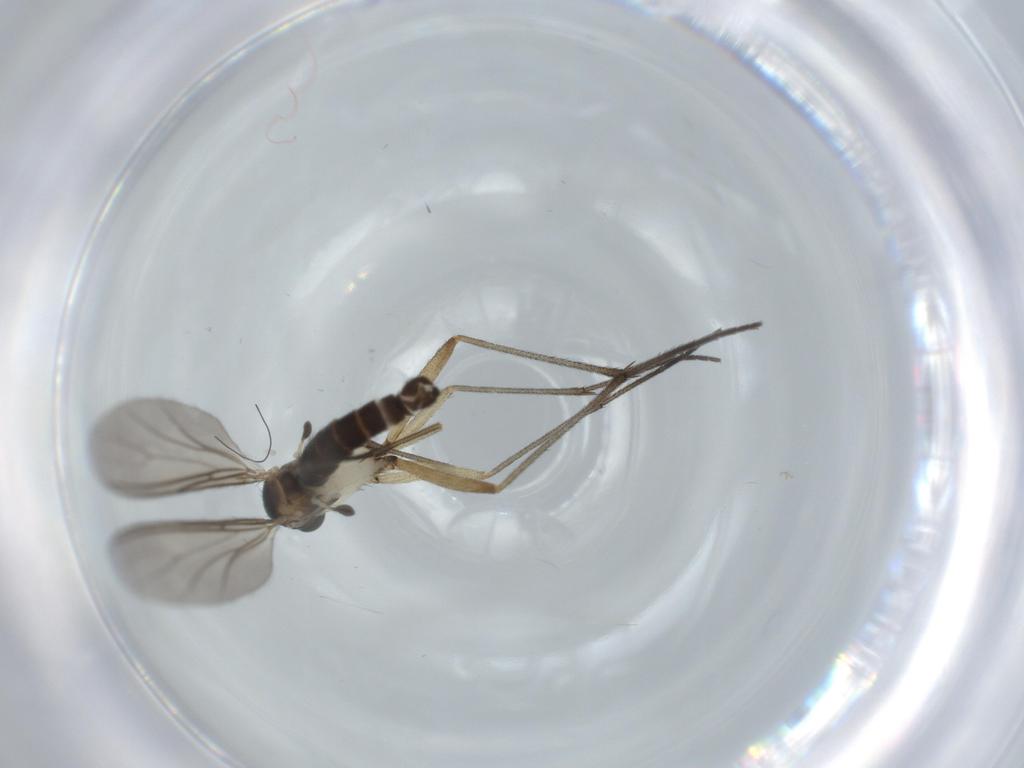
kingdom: Animalia
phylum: Arthropoda
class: Insecta
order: Diptera
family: Sciaridae
